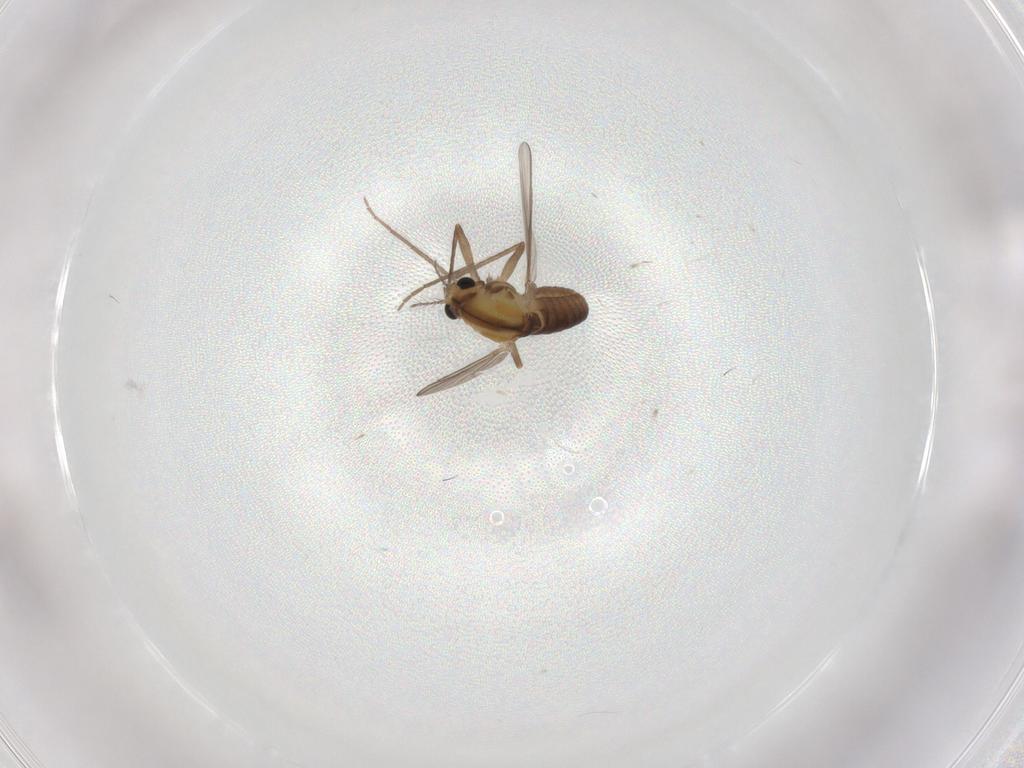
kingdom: Animalia
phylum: Arthropoda
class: Insecta
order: Diptera
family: Chironomidae
